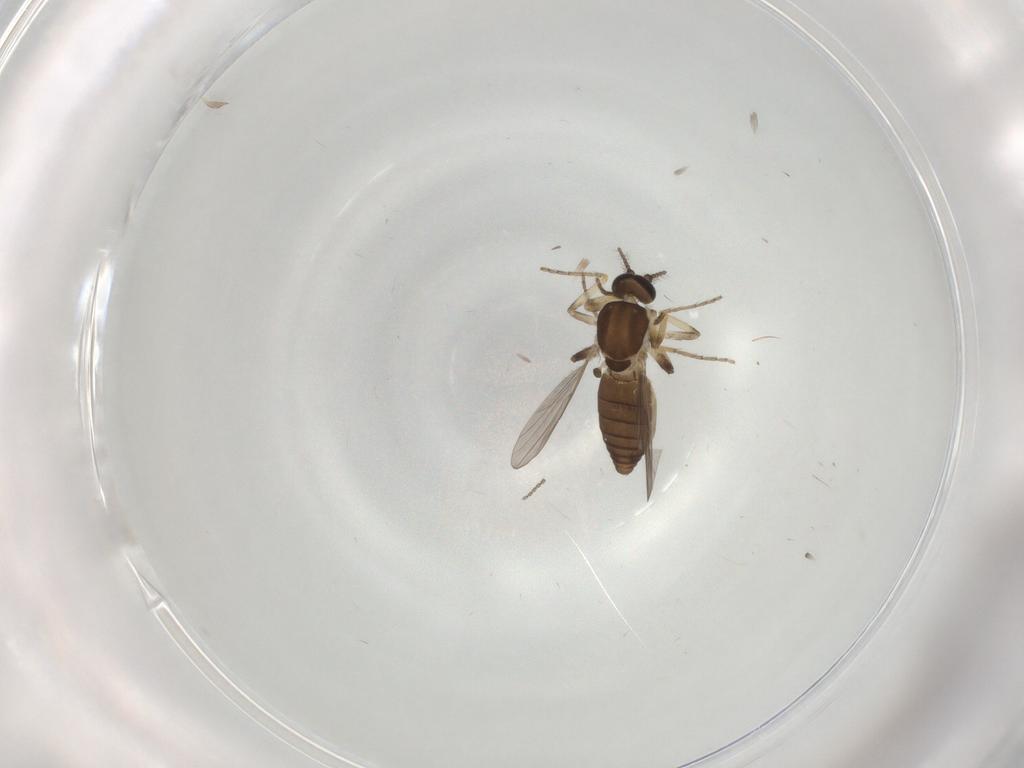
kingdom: Animalia
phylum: Arthropoda
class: Insecta
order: Diptera
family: Ceratopogonidae
